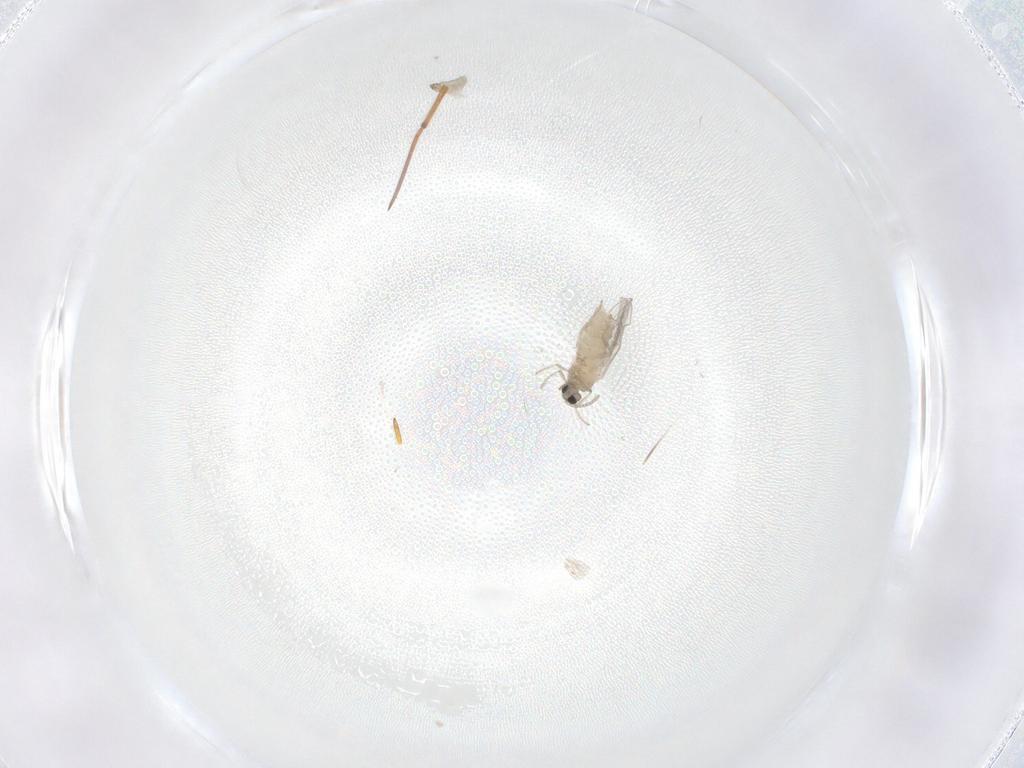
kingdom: Animalia
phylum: Arthropoda
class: Insecta
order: Diptera
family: Cecidomyiidae
